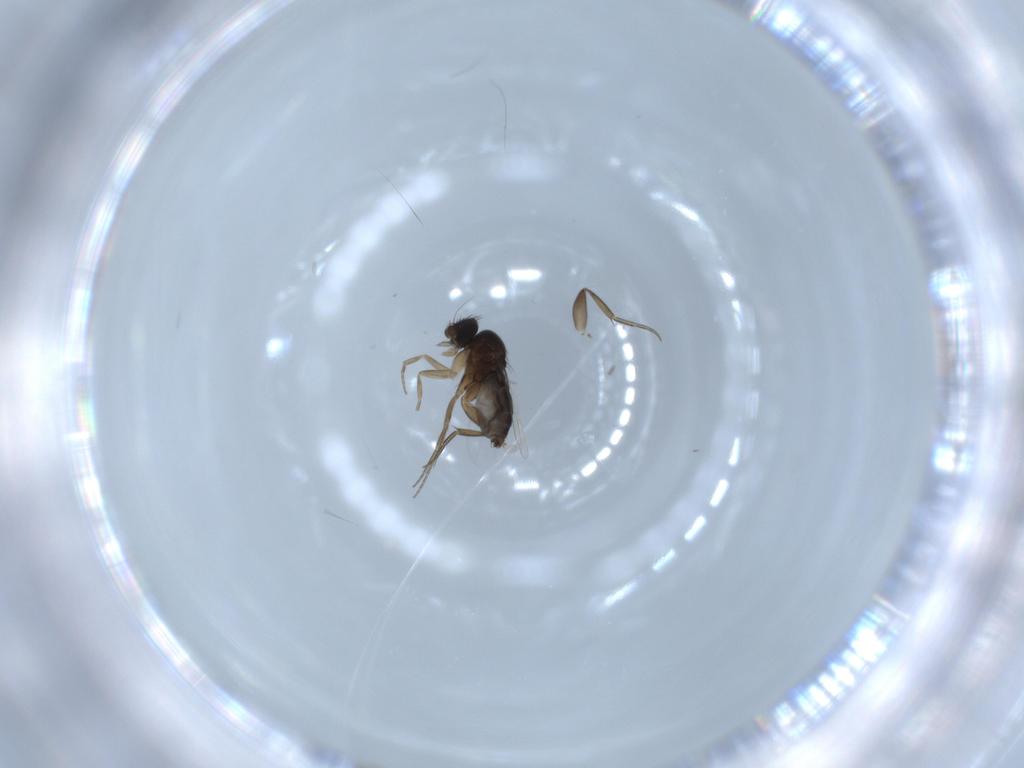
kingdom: Animalia
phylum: Arthropoda
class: Insecta
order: Diptera
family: Phoridae
